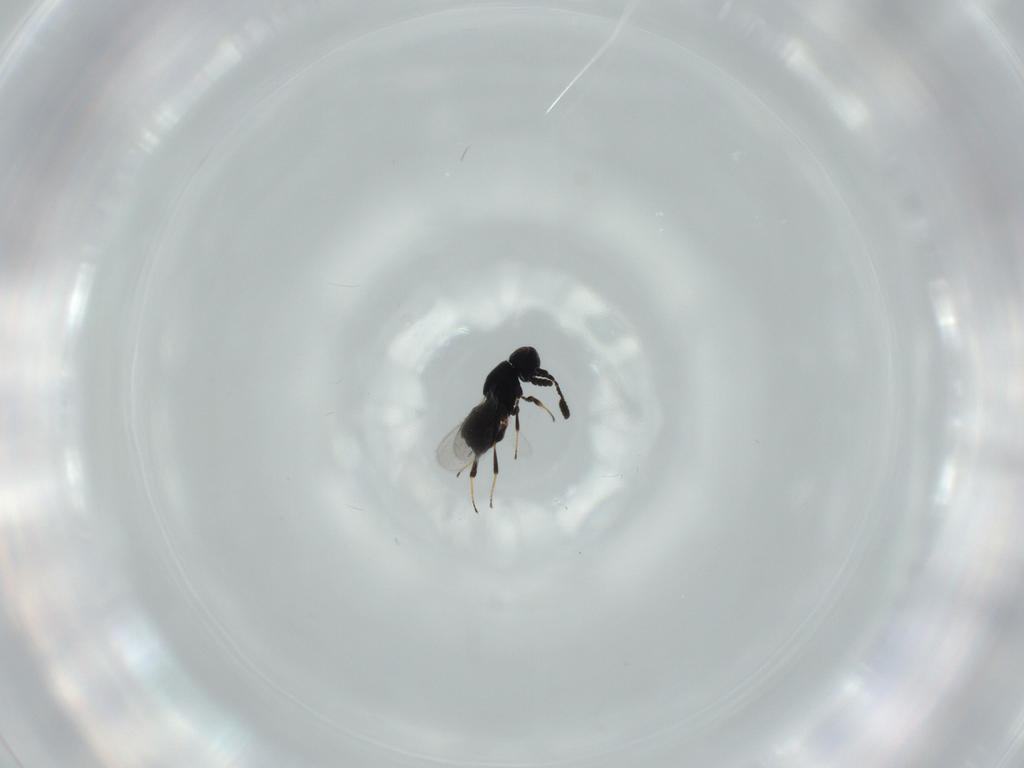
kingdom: Animalia
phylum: Arthropoda
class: Insecta
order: Hymenoptera
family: Scelionidae
